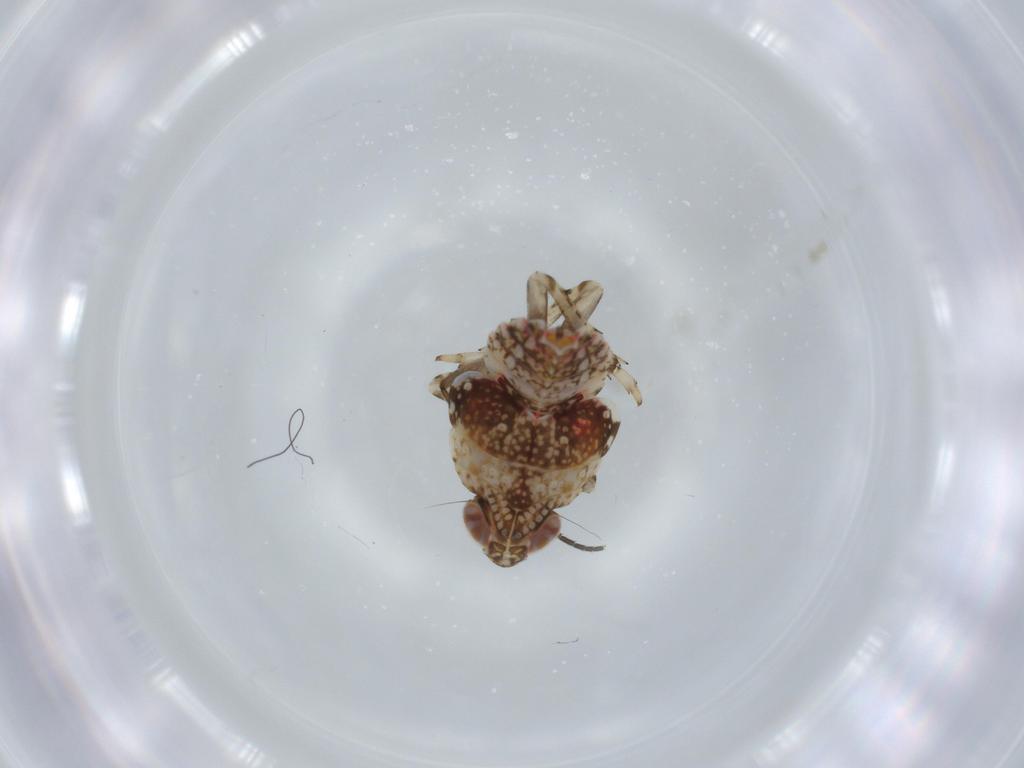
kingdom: Animalia
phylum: Arthropoda
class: Insecta
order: Hemiptera
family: Issidae
